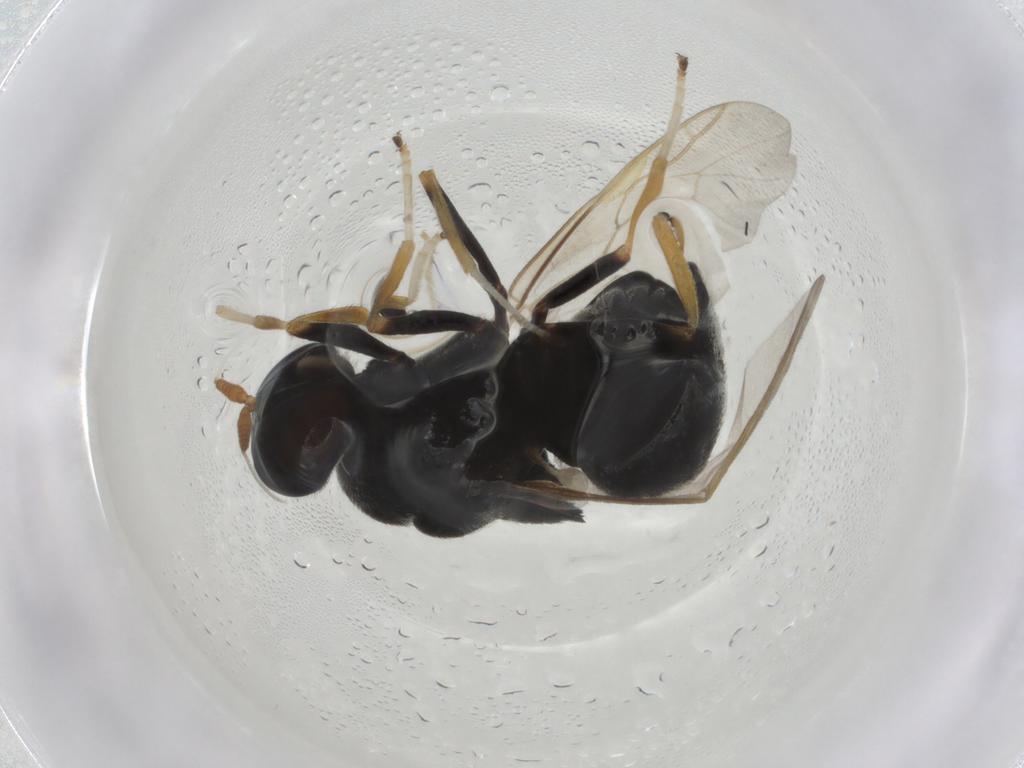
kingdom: Animalia
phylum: Arthropoda
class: Insecta
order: Diptera
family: Stratiomyidae
